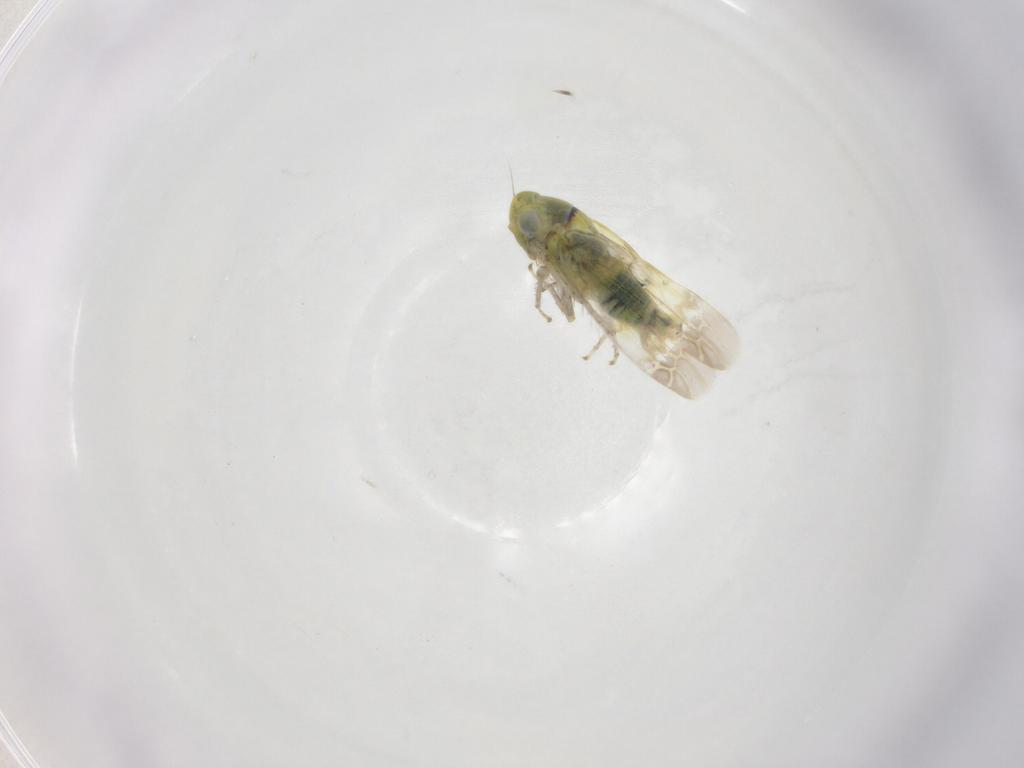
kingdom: Animalia
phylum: Arthropoda
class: Insecta
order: Hemiptera
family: Cicadellidae
